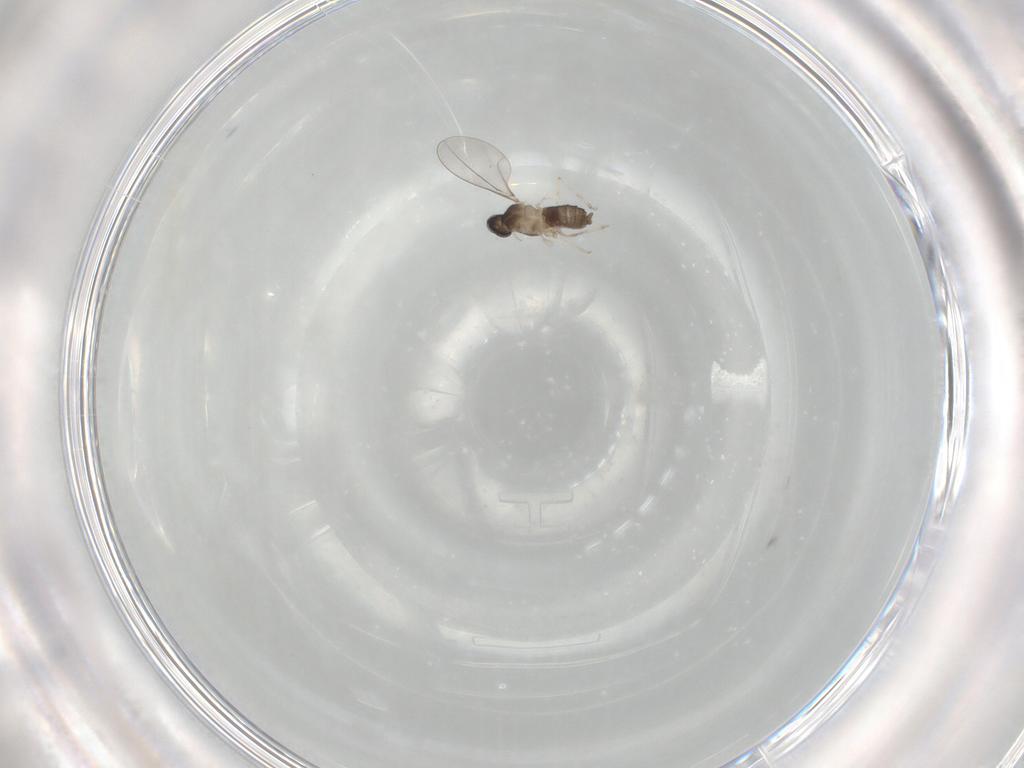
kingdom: Animalia
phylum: Arthropoda
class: Insecta
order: Diptera
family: Cecidomyiidae
